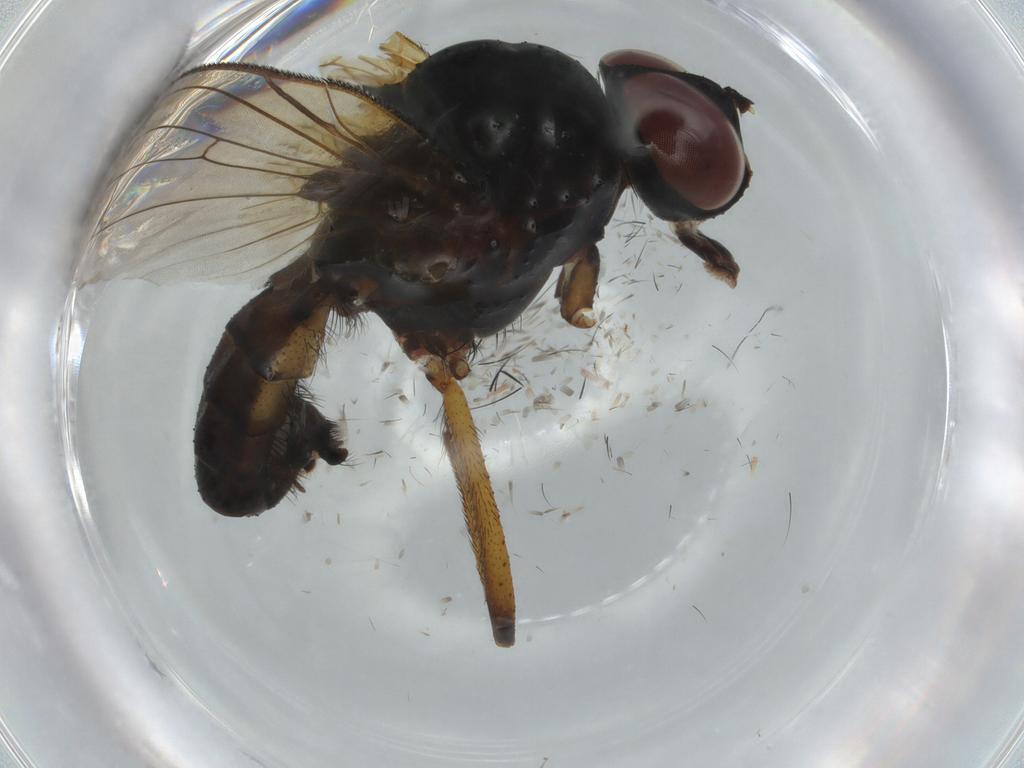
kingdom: Animalia
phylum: Arthropoda
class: Insecta
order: Diptera
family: Anthomyiidae
